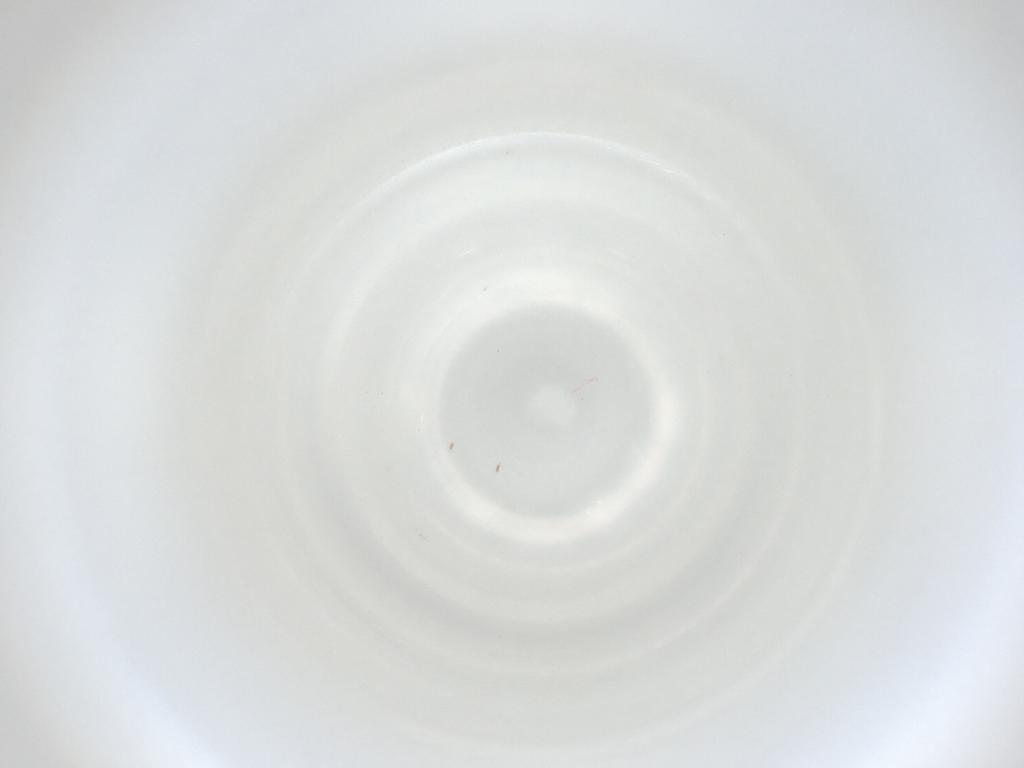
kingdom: Animalia
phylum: Arthropoda
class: Insecta
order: Diptera
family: Cecidomyiidae
